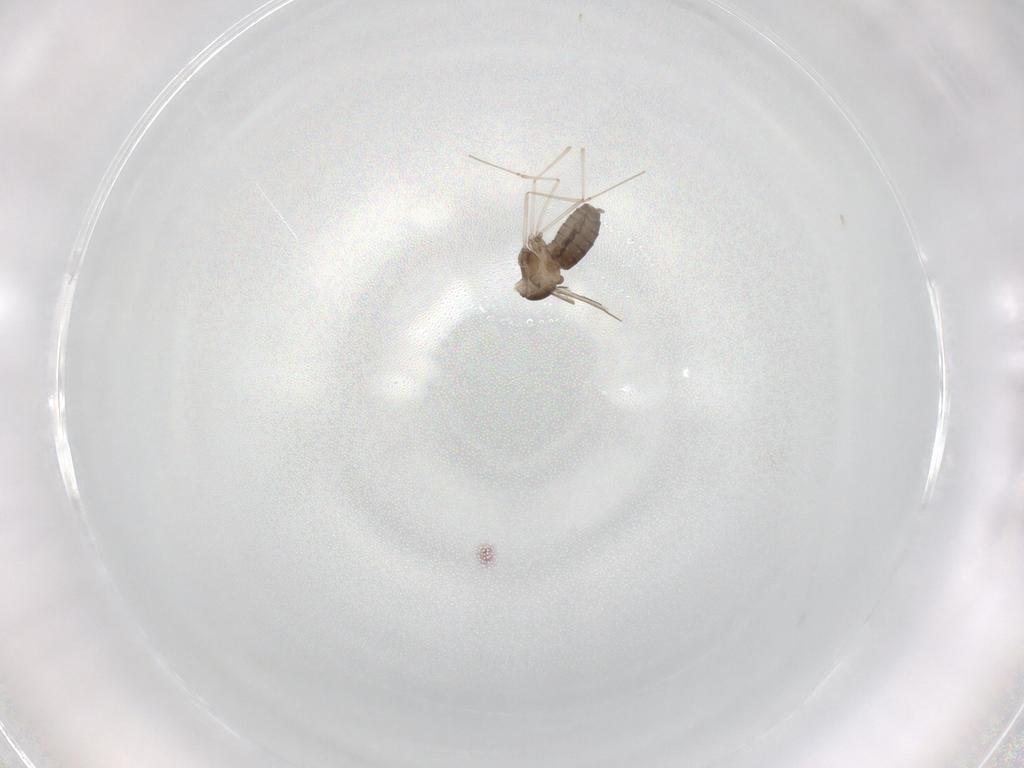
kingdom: Animalia
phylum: Arthropoda
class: Insecta
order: Diptera
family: Cecidomyiidae
